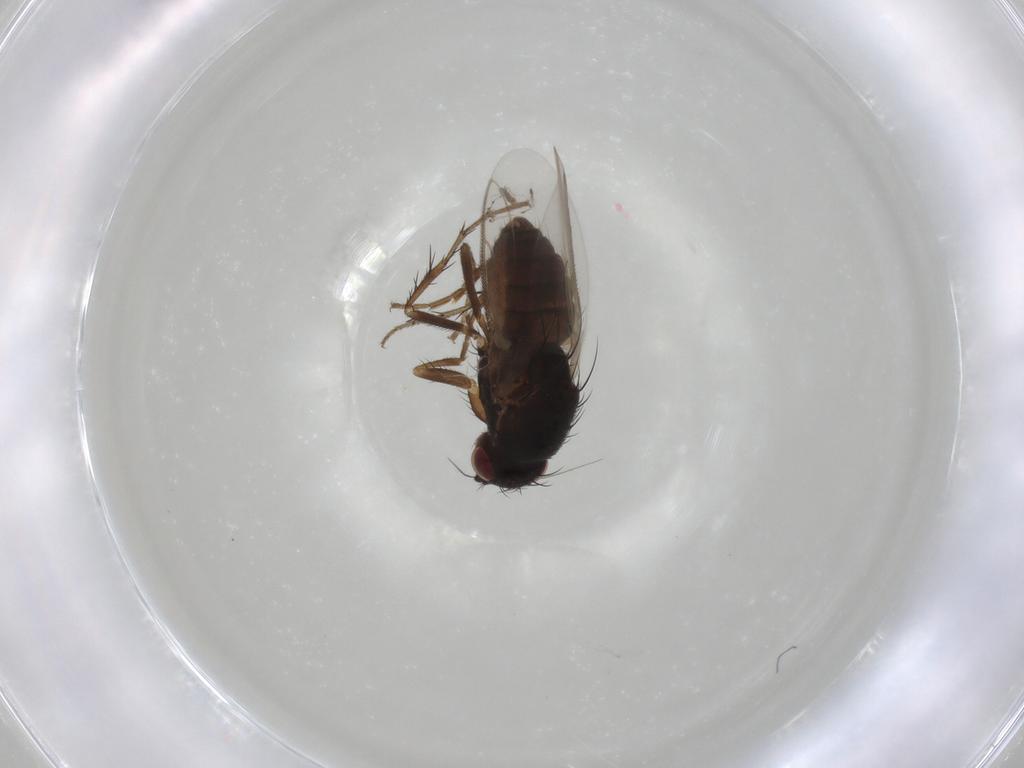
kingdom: Animalia
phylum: Arthropoda
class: Insecta
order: Diptera
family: Sphaeroceridae
